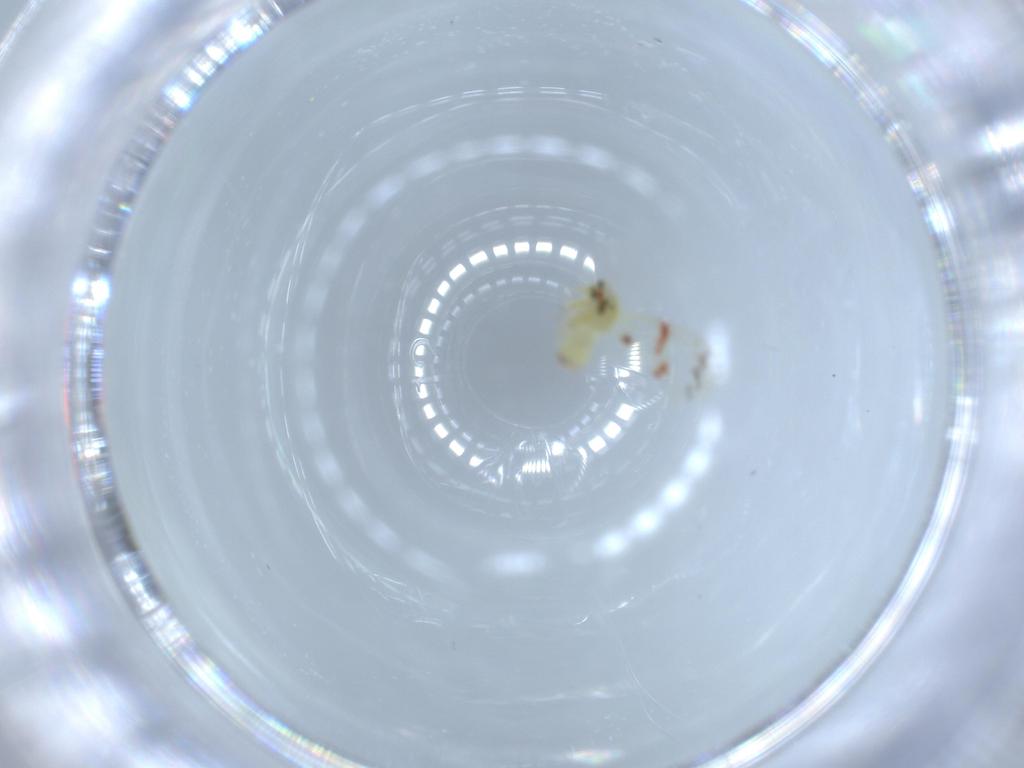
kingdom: Animalia
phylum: Arthropoda
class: Insecta
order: Hemiptera
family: Aleyrodidae
